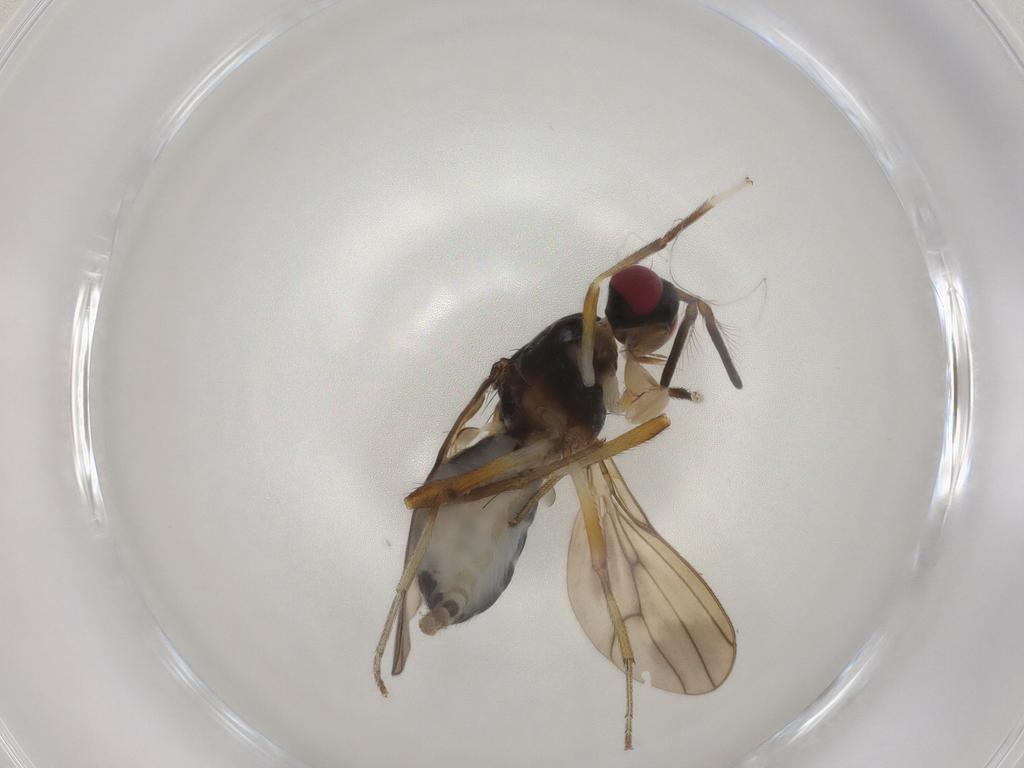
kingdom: Animalia
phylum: Arthropoda
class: Insecta
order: Diptera
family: Lauxaniidae
